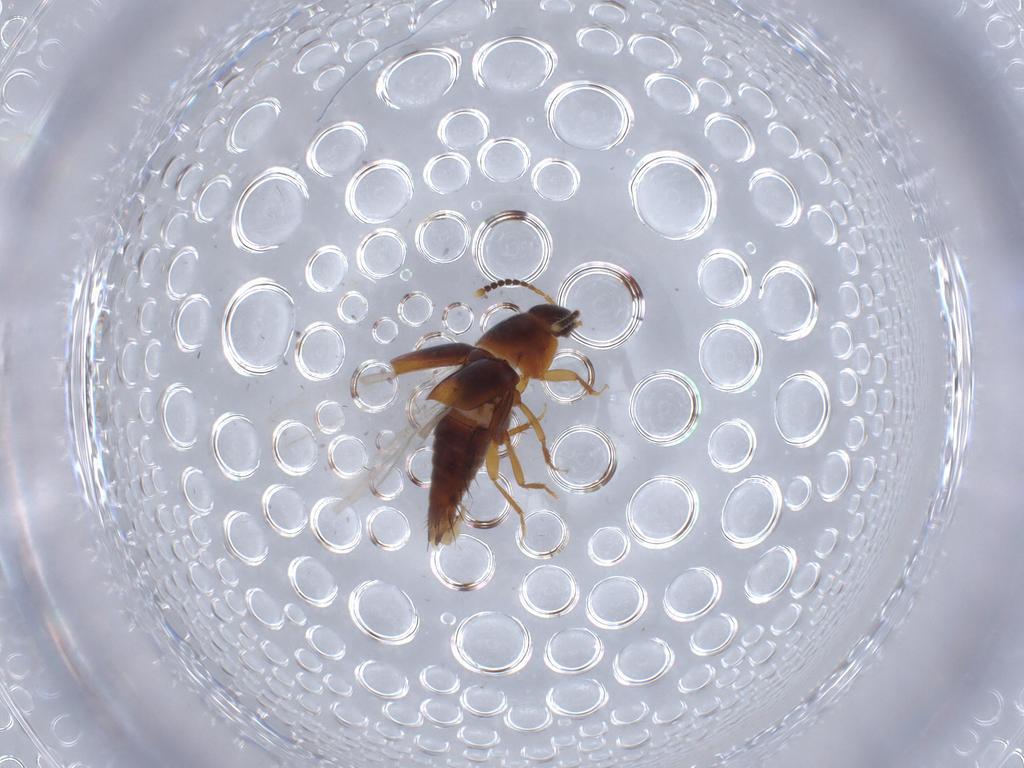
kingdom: Animalia
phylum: Arthropoda
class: Insecta
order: Coleoptera
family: Staphylinidae
